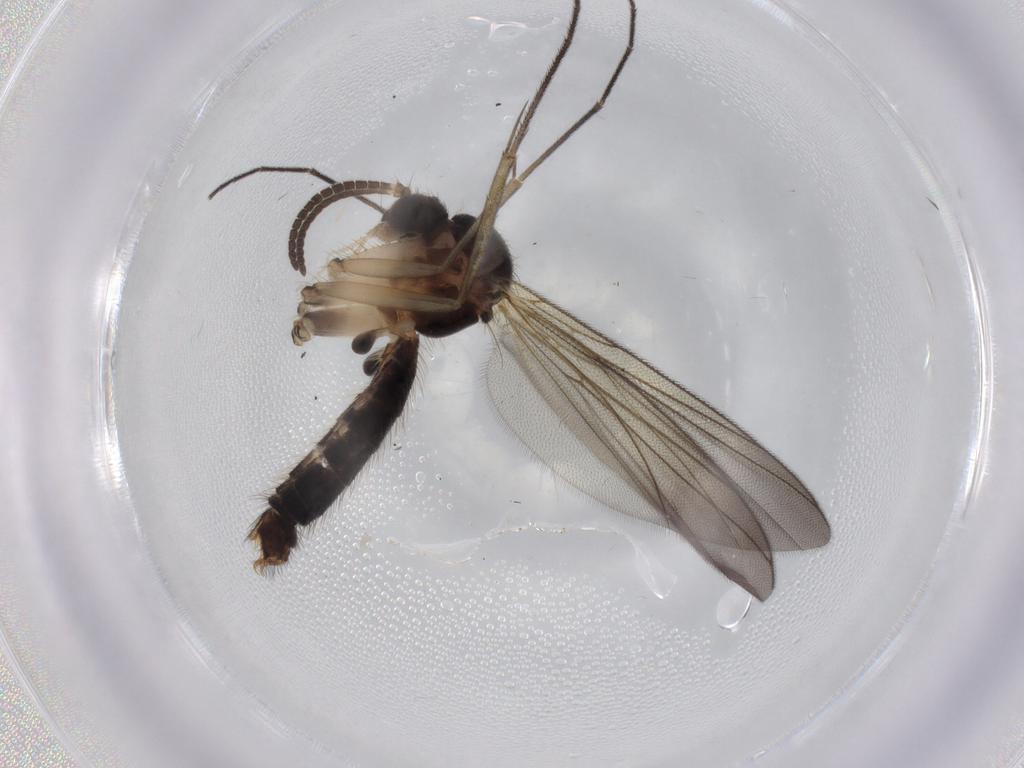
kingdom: Animalia
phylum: Arthropoda
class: Insecta
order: Diptera
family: Mycetophilidae
